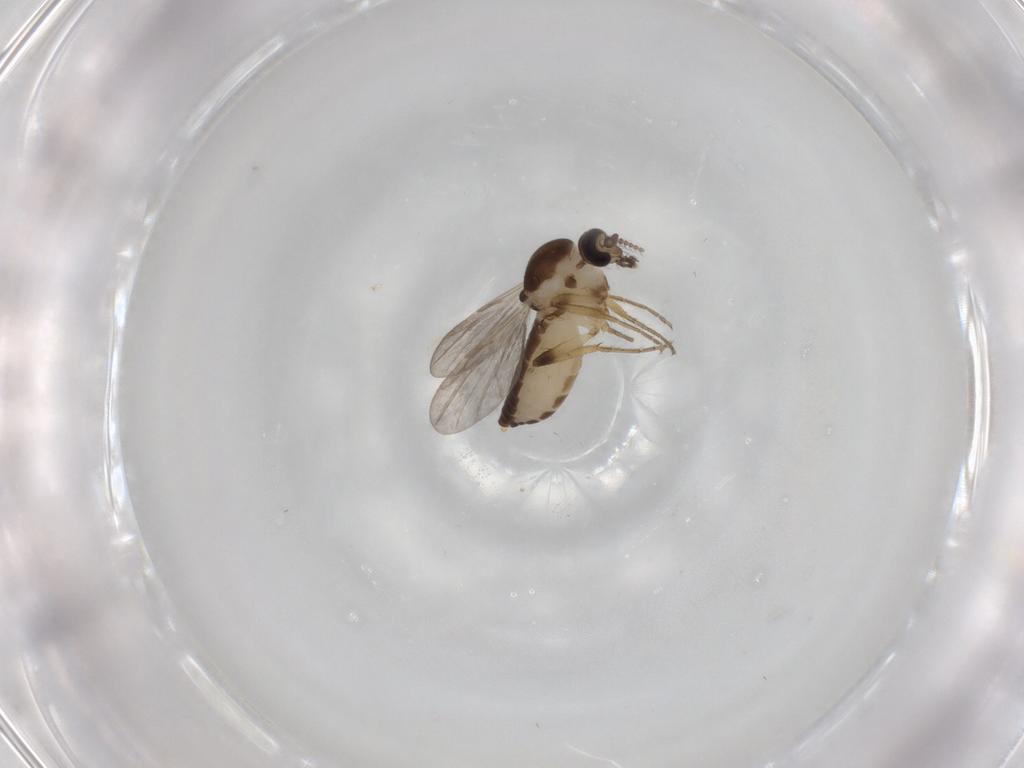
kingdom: Animalia
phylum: Arthropoda
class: Insecta
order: Diptera
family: Ceratopogonidae
